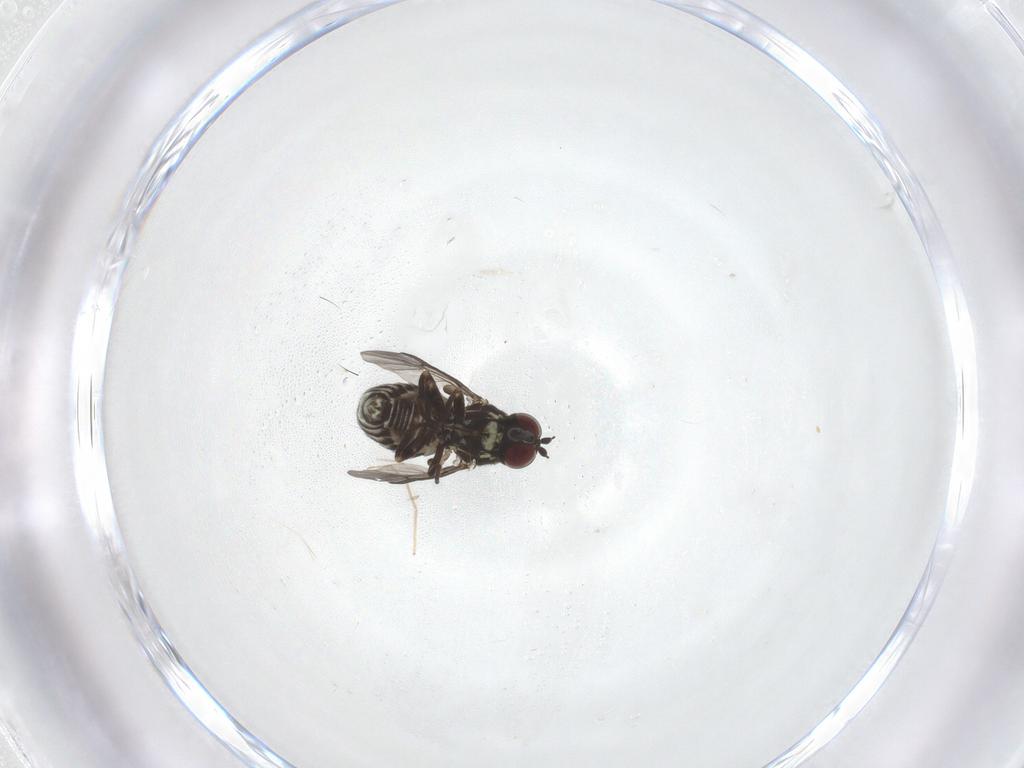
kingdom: Animalia
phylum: Arthropoda
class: Insecta
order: Diptera
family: Bombyliidae
